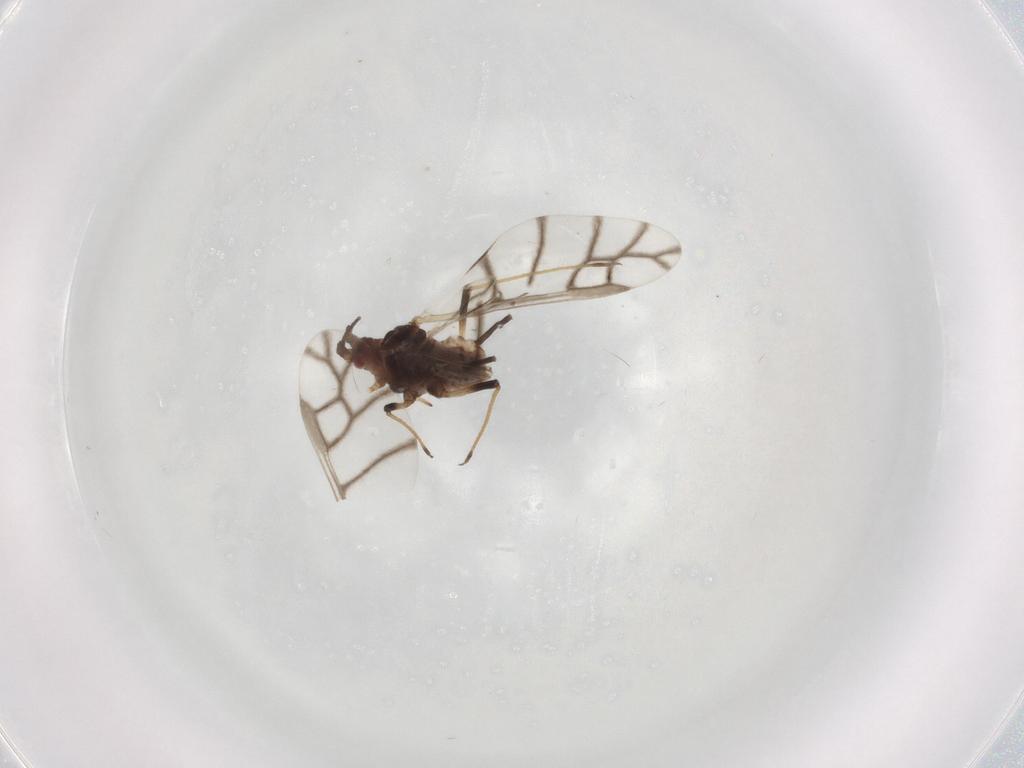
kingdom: Animalia
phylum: Arthropoda
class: Insecta
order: Hemiptera
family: Aphididae
